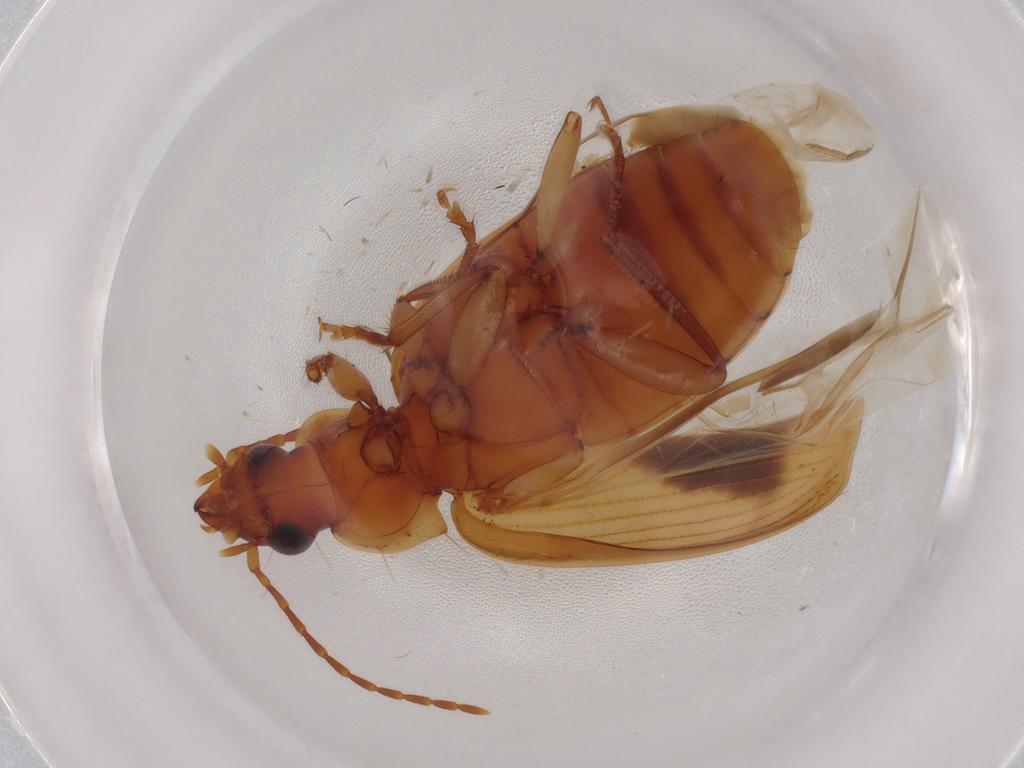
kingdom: Animalia
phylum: Arthropoda
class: Insecta
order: Coleoptera
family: Carabidae
